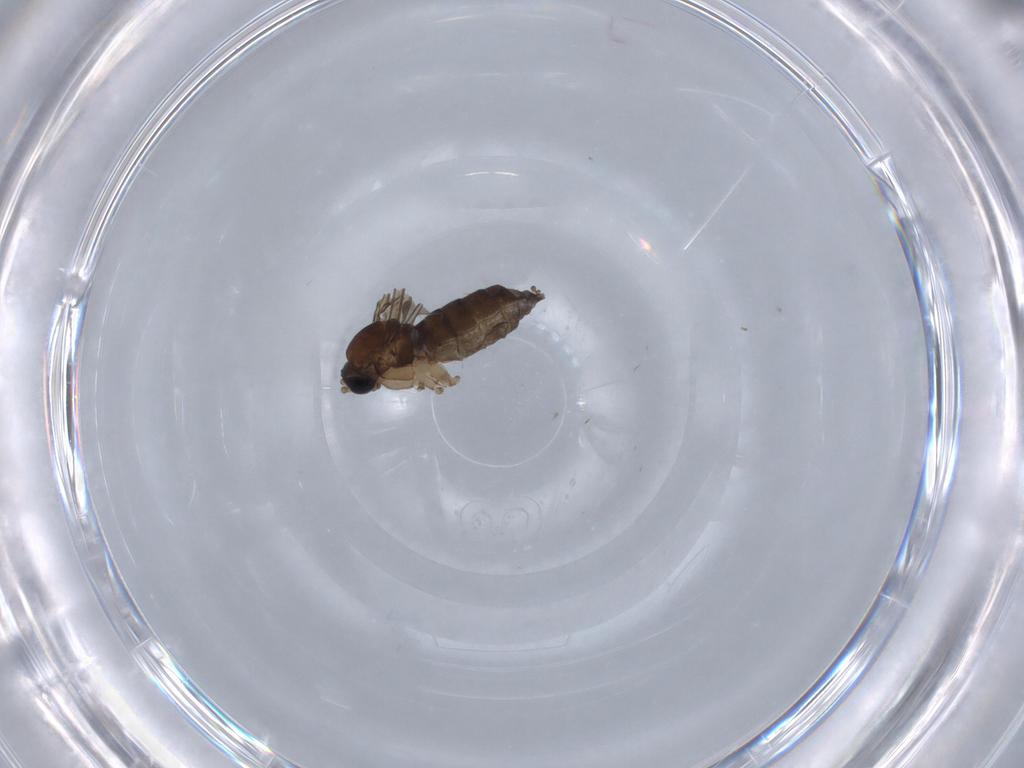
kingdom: Animalia
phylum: Arthropoda
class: Insecta
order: Diptera
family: Sciaridae
